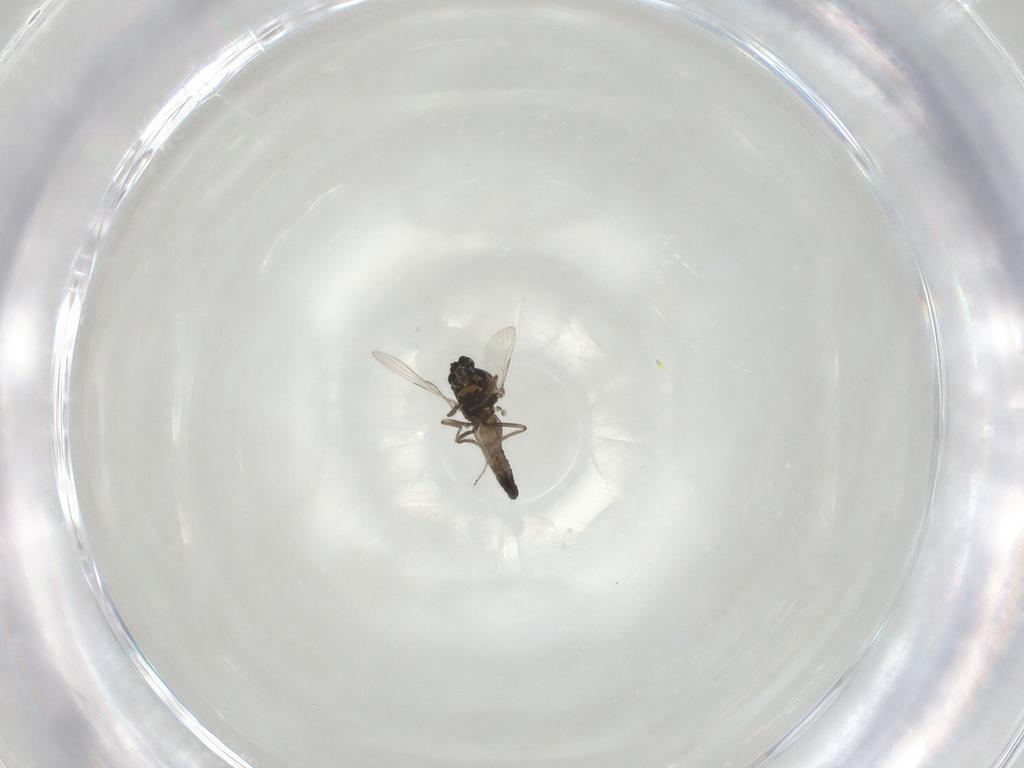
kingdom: Animalia
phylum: Arthropoda
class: Insecta
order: Diptera
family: Ceratopogonidae
